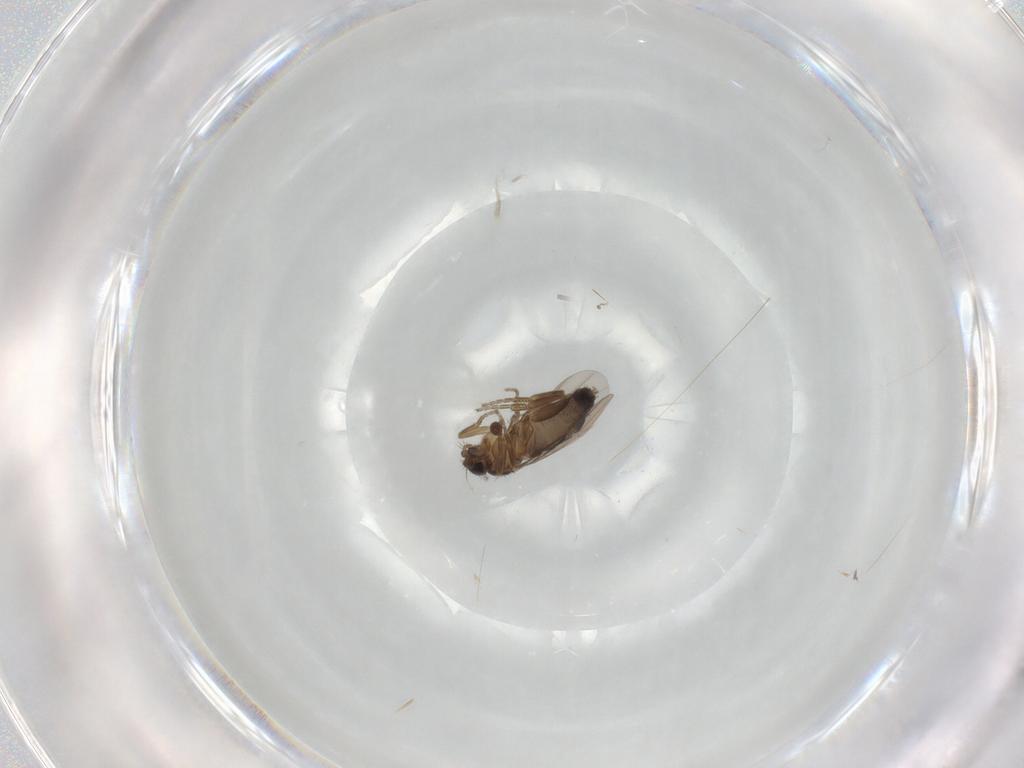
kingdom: Animalia
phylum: Arthropoda
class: Insecta
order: Diptera
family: Phoridae
